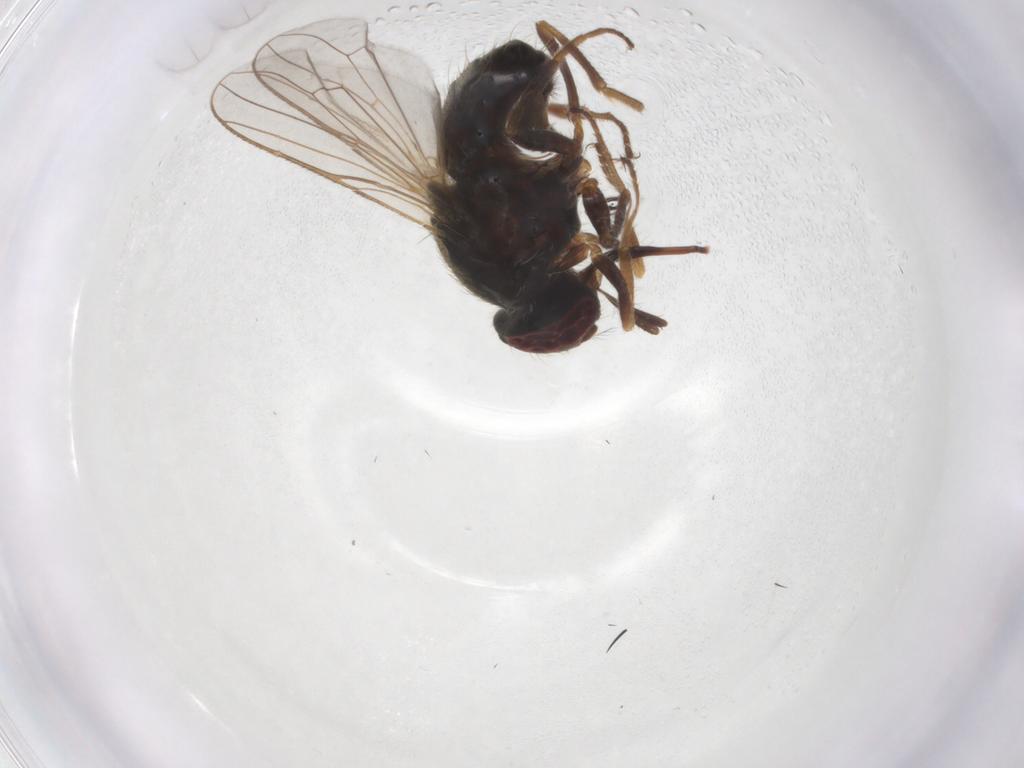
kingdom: Animalia
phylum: Arthropoda
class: Insecta
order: Diptera
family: Muscidae
